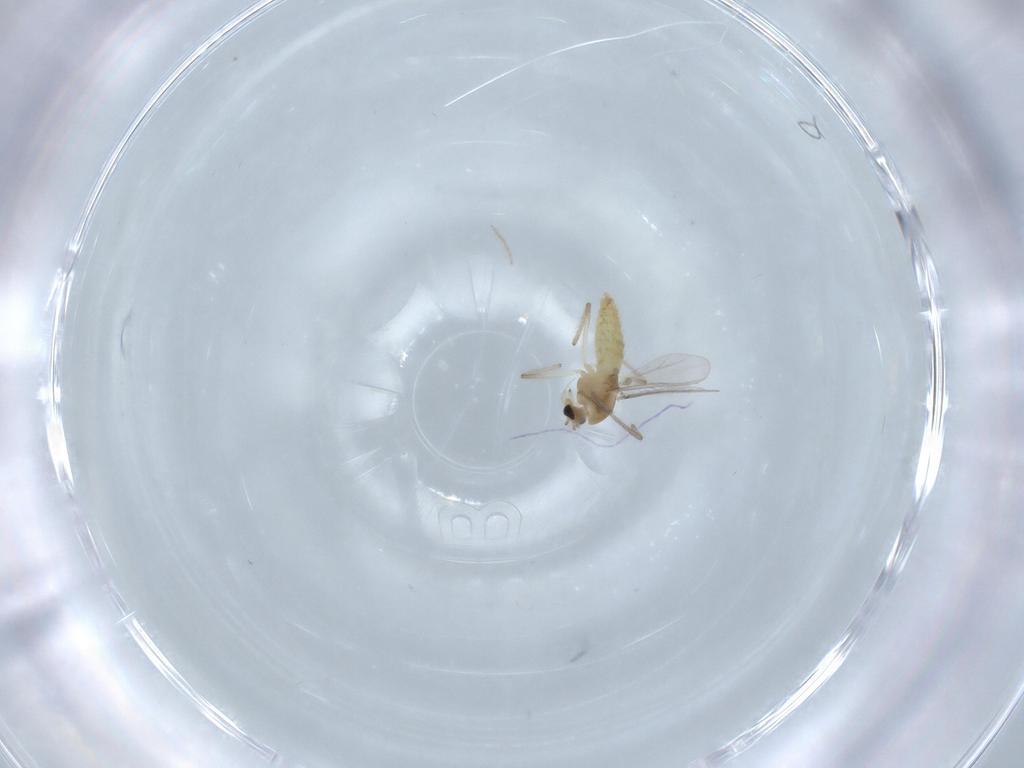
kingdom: Animalia
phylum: Arthropoda
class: Insecta
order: Diptera
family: Chironomidae
